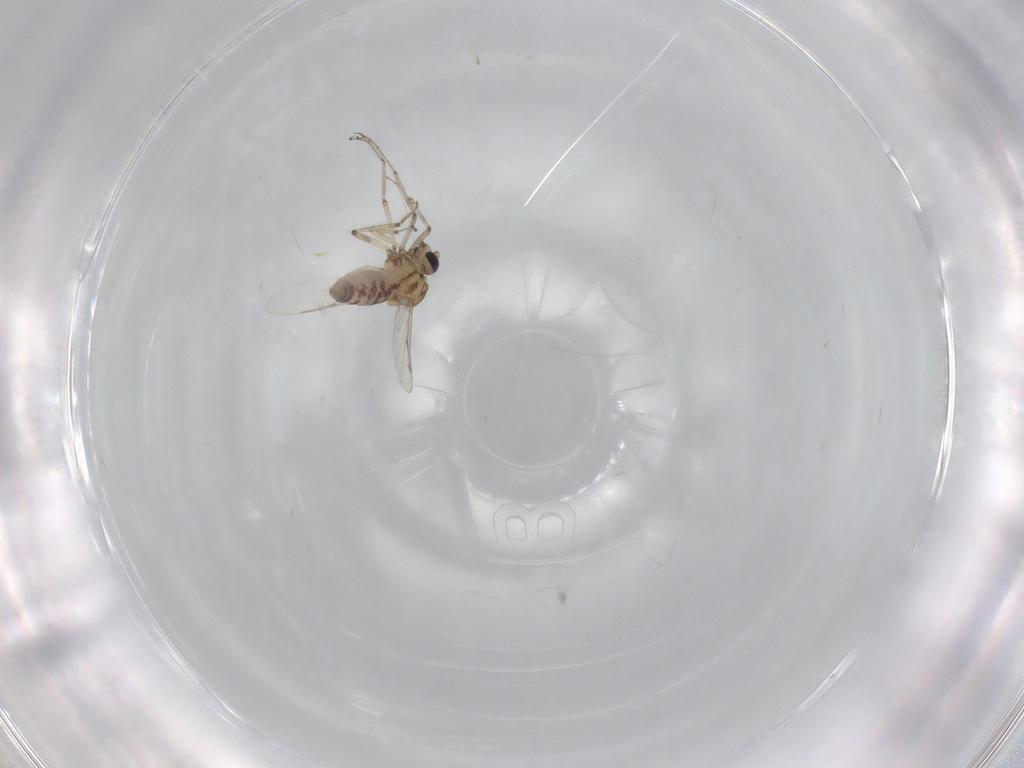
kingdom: Animalia
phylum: Arthropoda
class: Insecta
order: Diptera
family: Ceratopogonidae
